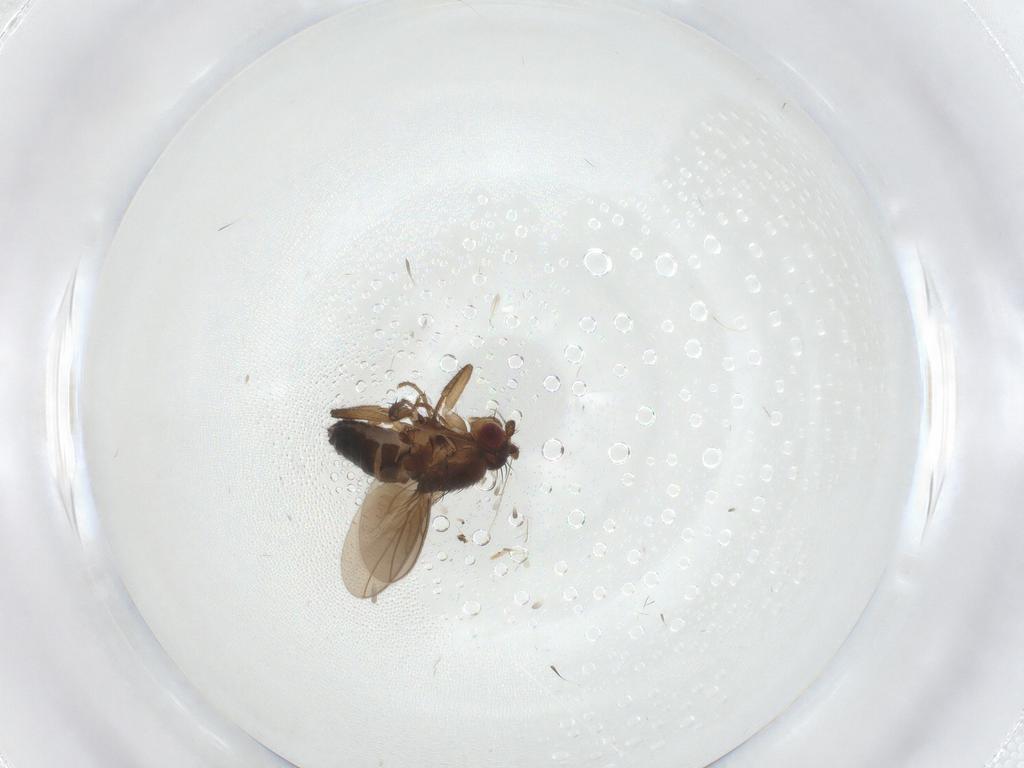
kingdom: Animalia
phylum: Arthropoda
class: Insecta
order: Diptera
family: Sphaeroceridae
